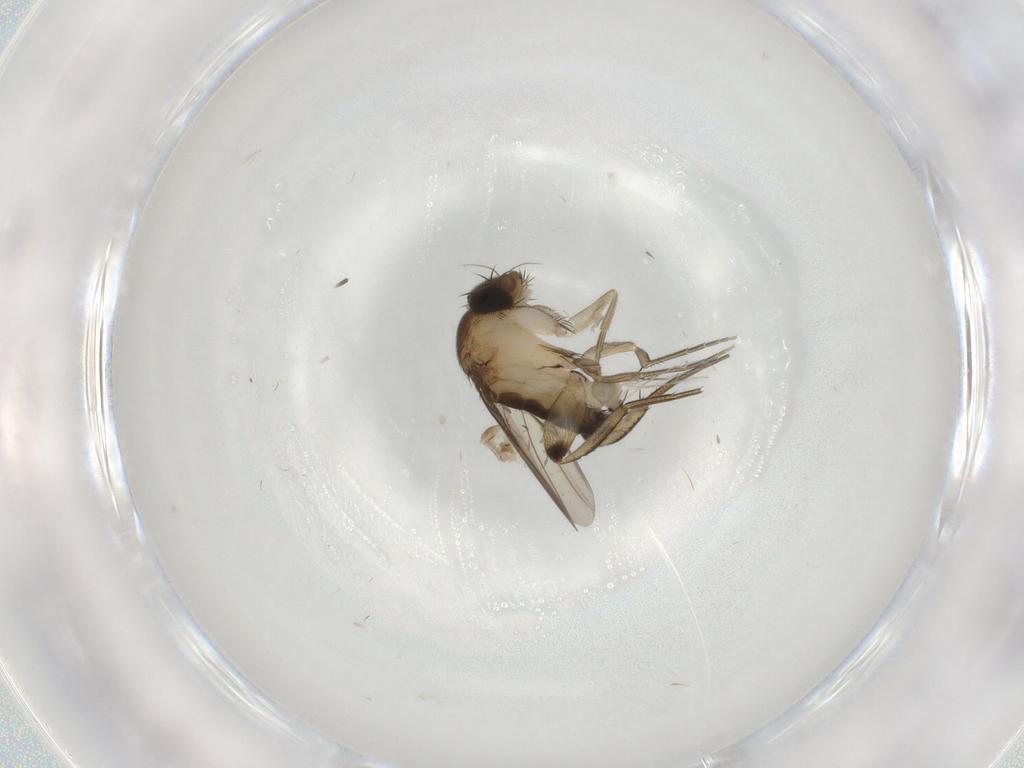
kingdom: Animalia
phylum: Arthropoda
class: Insecta
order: Diptera
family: Phoridae
